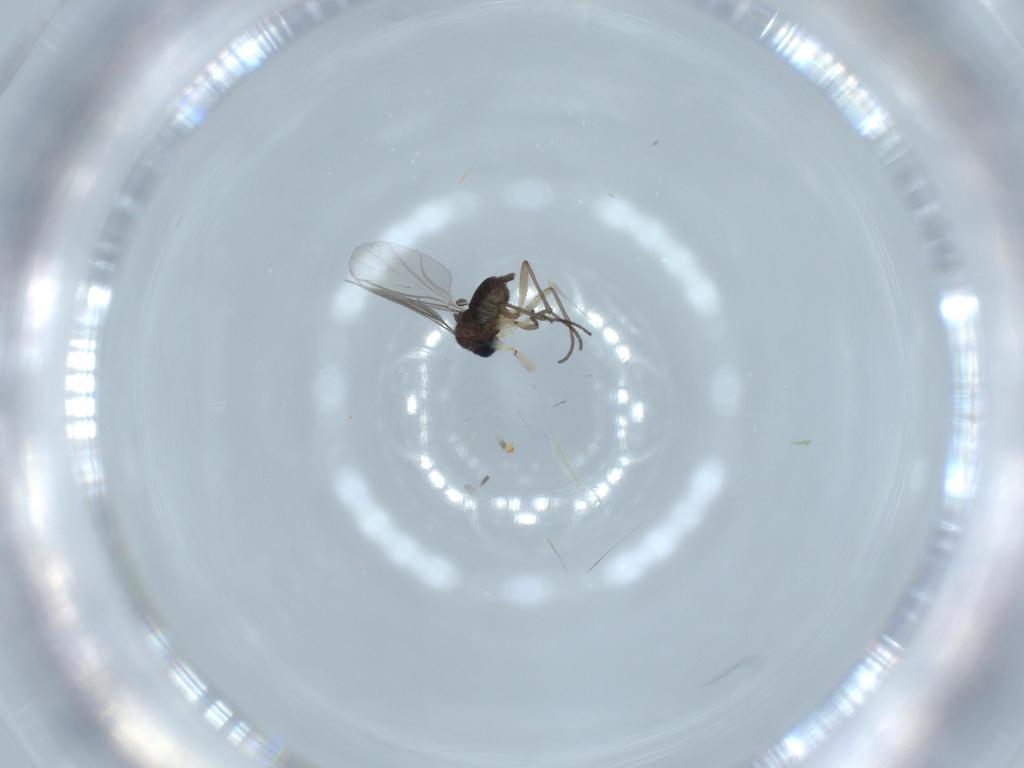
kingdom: Animalia
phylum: Arthropoda
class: Insecta
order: Diptera
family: Sciaridae
